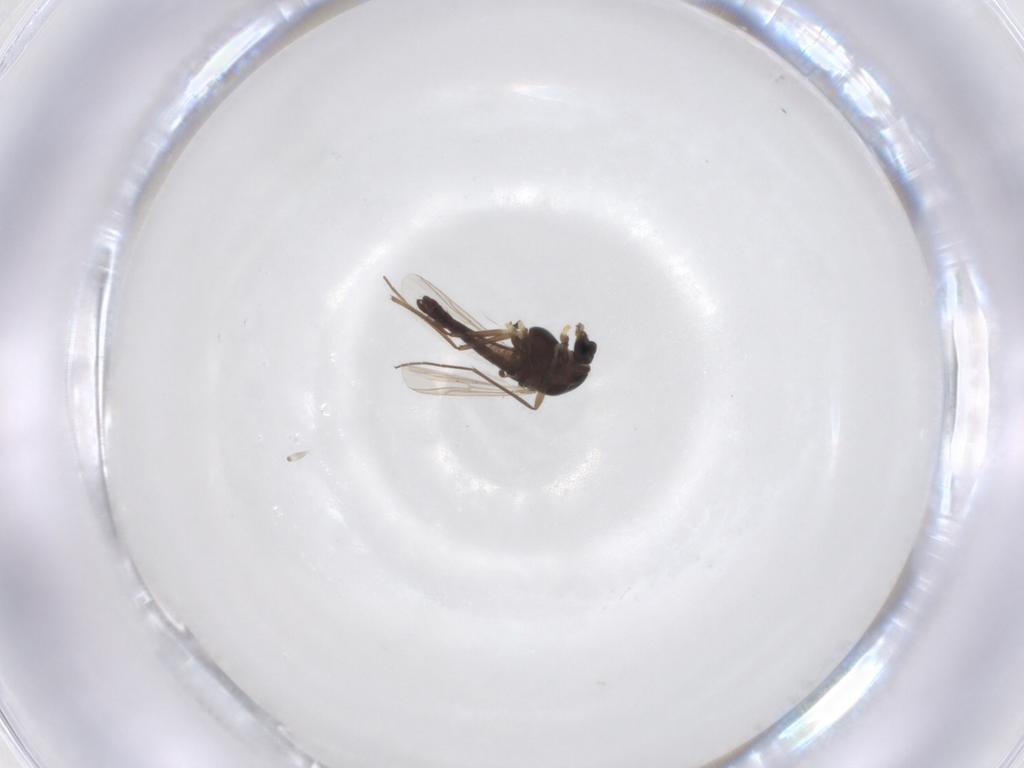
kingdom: Animalia
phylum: Arthropoda
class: Insecta
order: Diptera
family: Chironomidae
